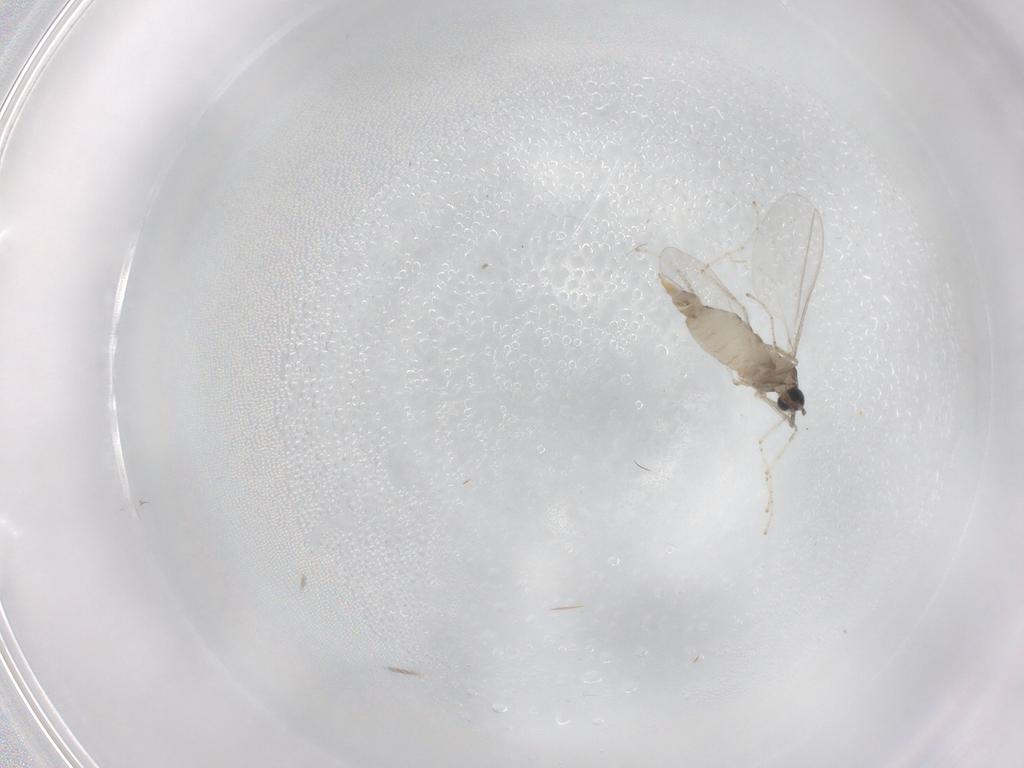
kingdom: Animalia
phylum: Arthropoda
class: Insecta
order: Diptera
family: Cecidomyiidae
